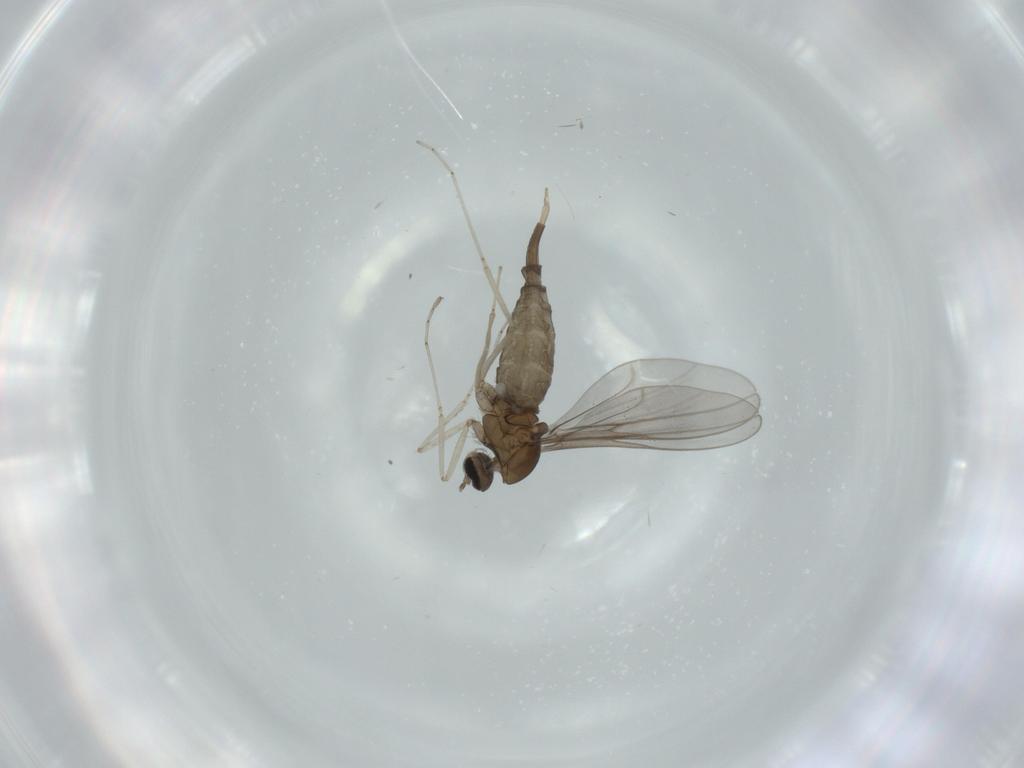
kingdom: Animalia
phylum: Arthropoda
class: Insecta
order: Diptera
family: Cecidomyiidae
